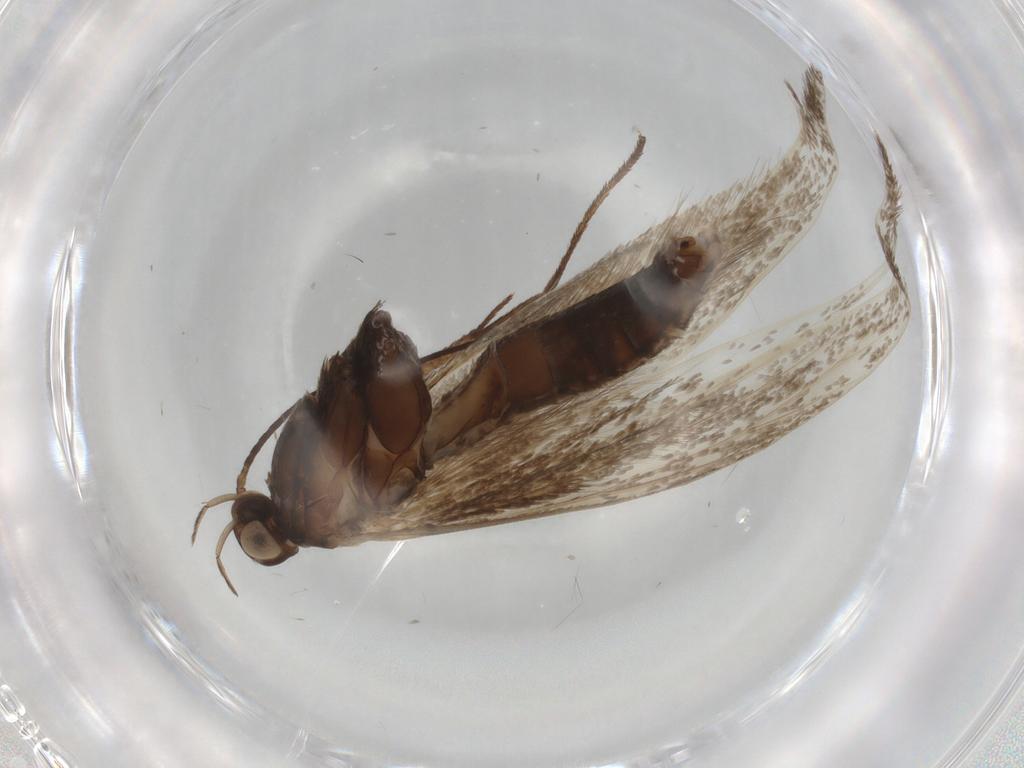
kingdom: Animalia
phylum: Arthropoda
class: Insecta
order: Lepidoptera
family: Coleophoridae
